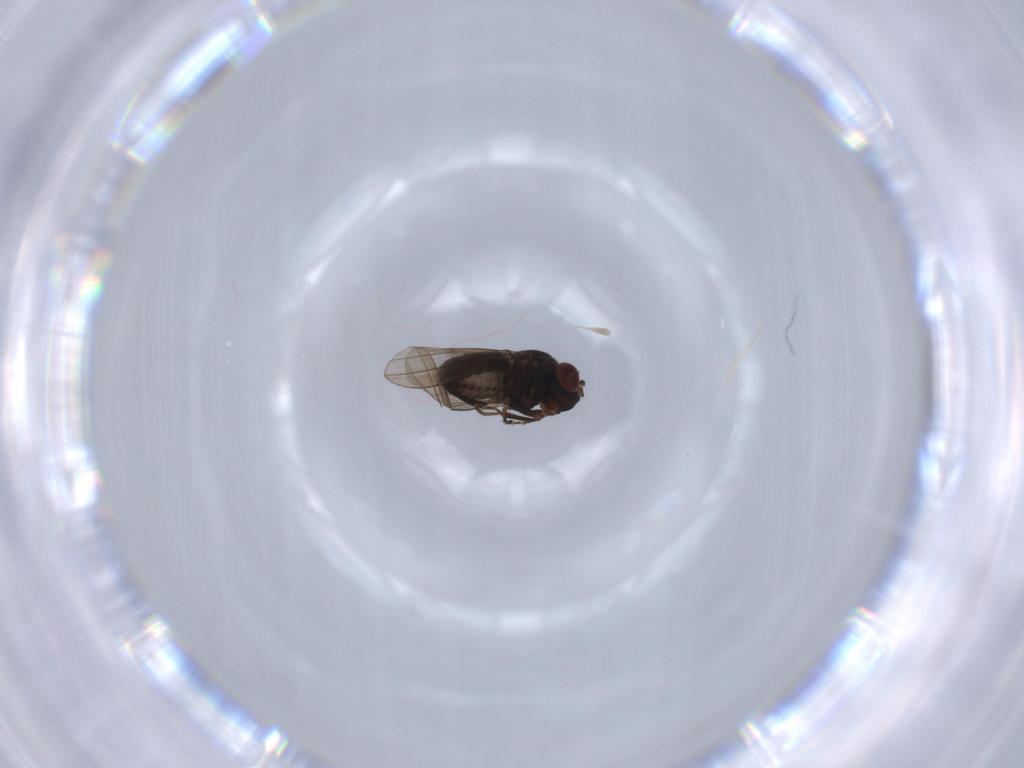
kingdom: Animalia
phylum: Arthropoda
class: Insecta
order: Diptera
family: Ephydridae
